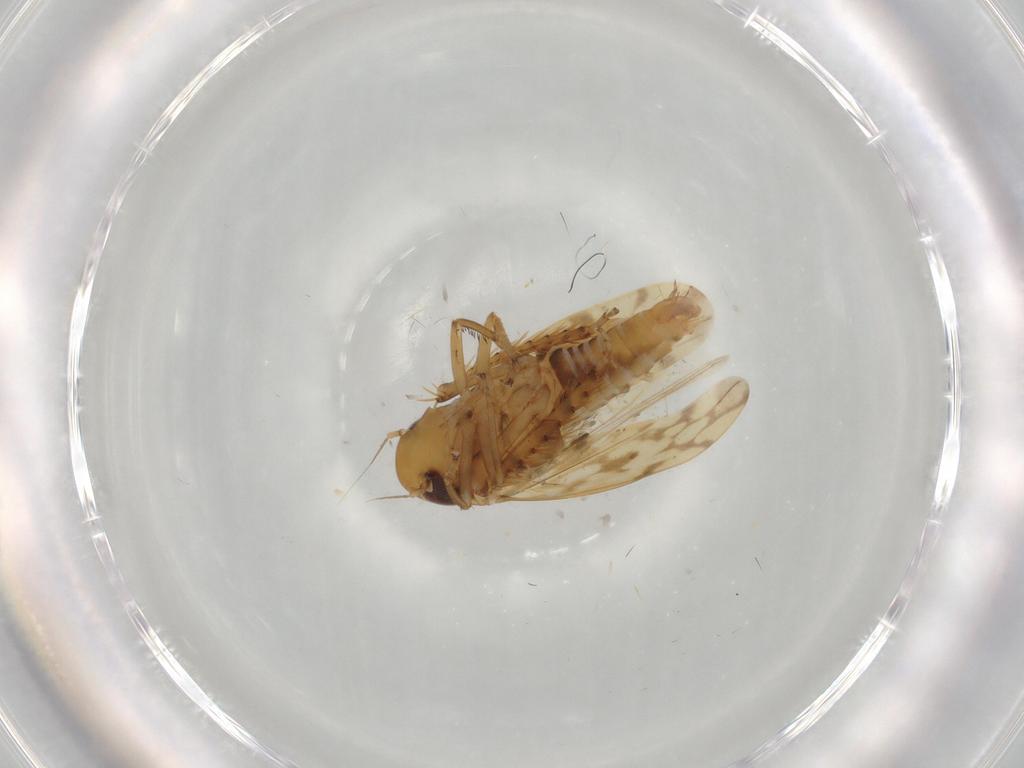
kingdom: Animalia
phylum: Arthropoda
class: Insecta
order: Hemiptera
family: Cicadellidae
